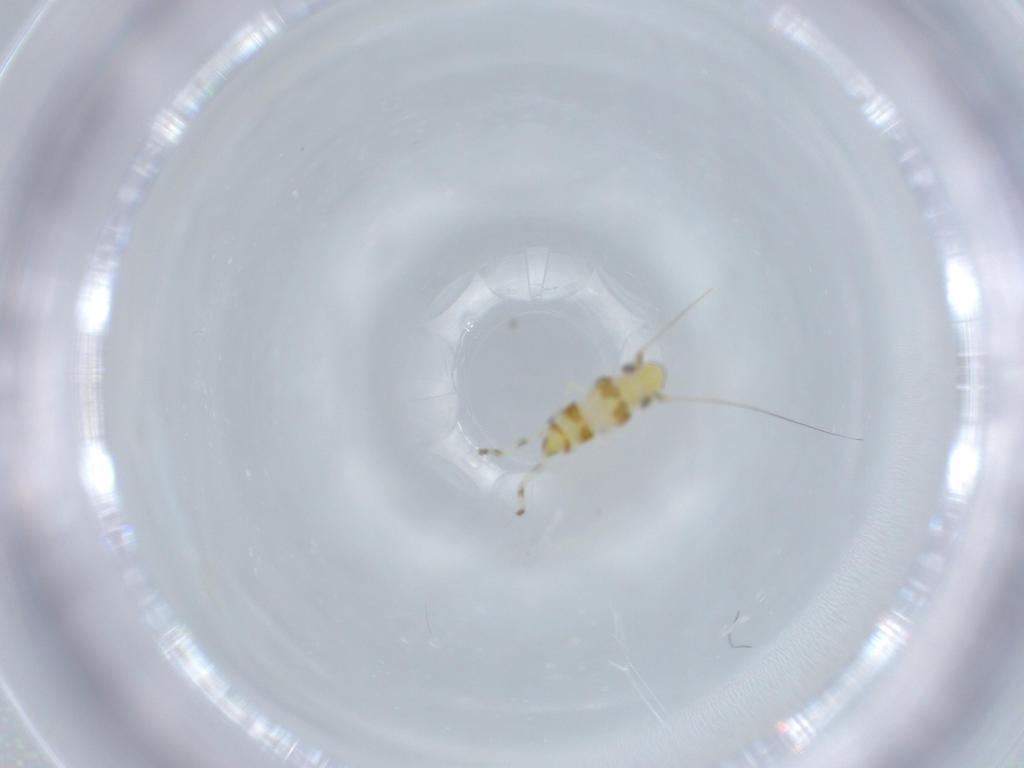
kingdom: Animalia
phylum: Arthropoda
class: Insecta
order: Hemiptera
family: Cicadellidae
